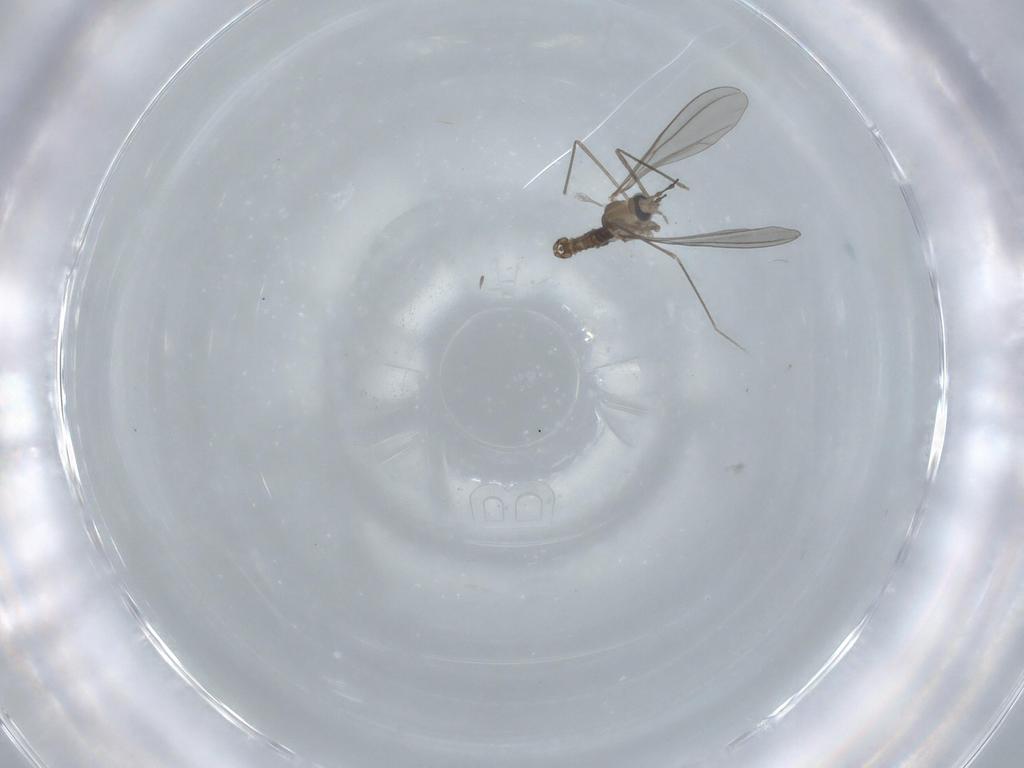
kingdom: Animalia
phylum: Arthropoda
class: Insecta
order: Diptera
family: Cecidomyiidae
